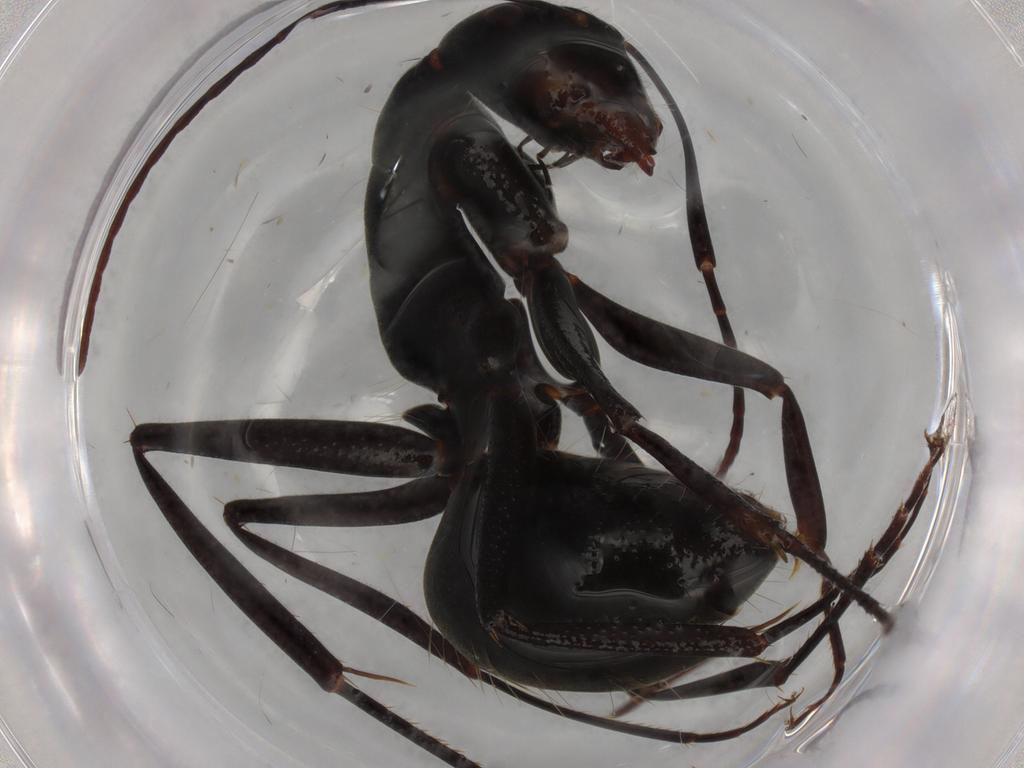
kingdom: Animalia
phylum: Arthropoda
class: Insecta
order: Hymenoptera
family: Formicidae
